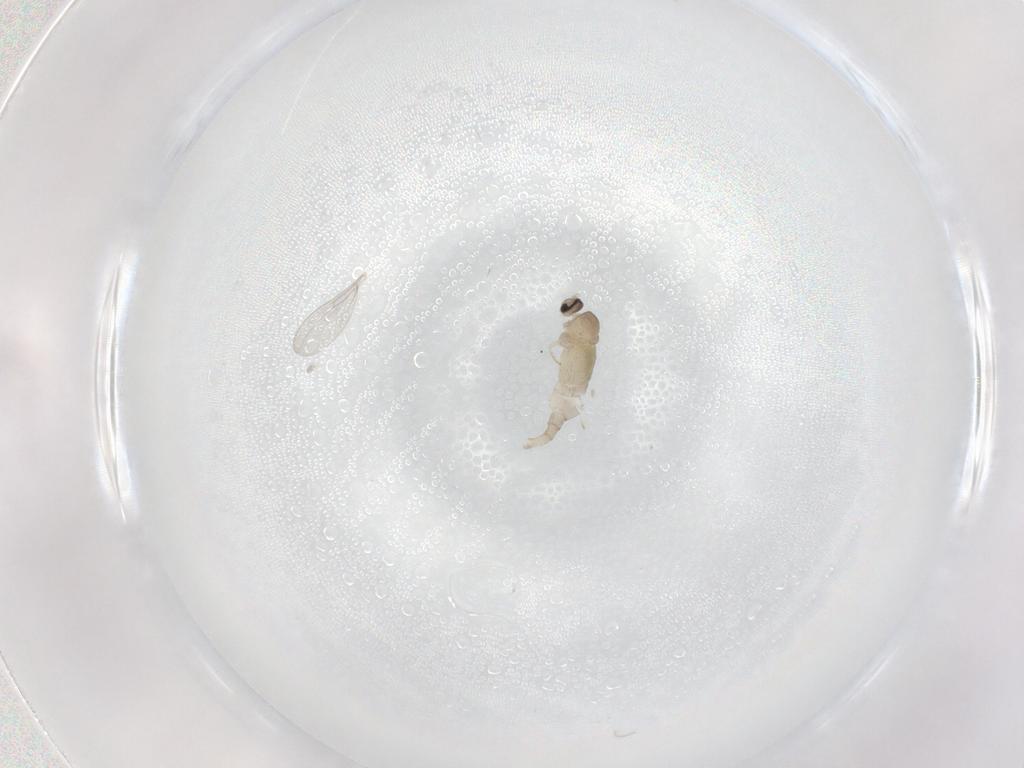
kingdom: Animalia
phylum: Arthropoda
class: Insecta
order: Diptera
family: Cecidomyiidae
